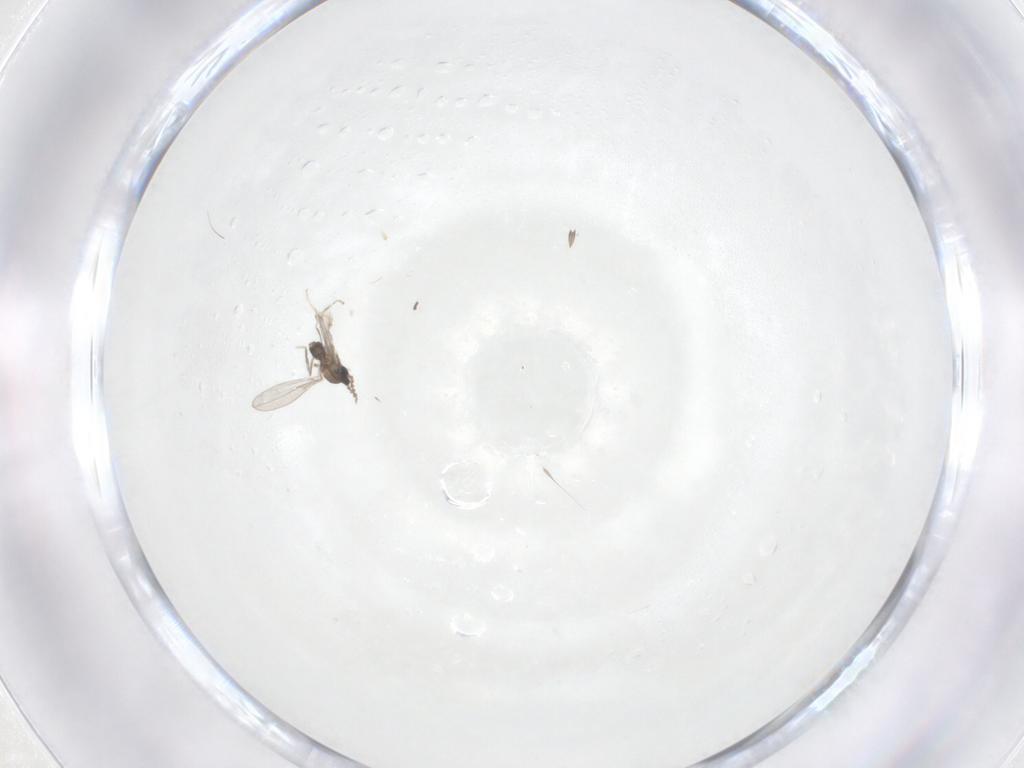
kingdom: Animalia
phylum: Arthropoda
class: Insecta
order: Diptera
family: Cecidomyiidae
